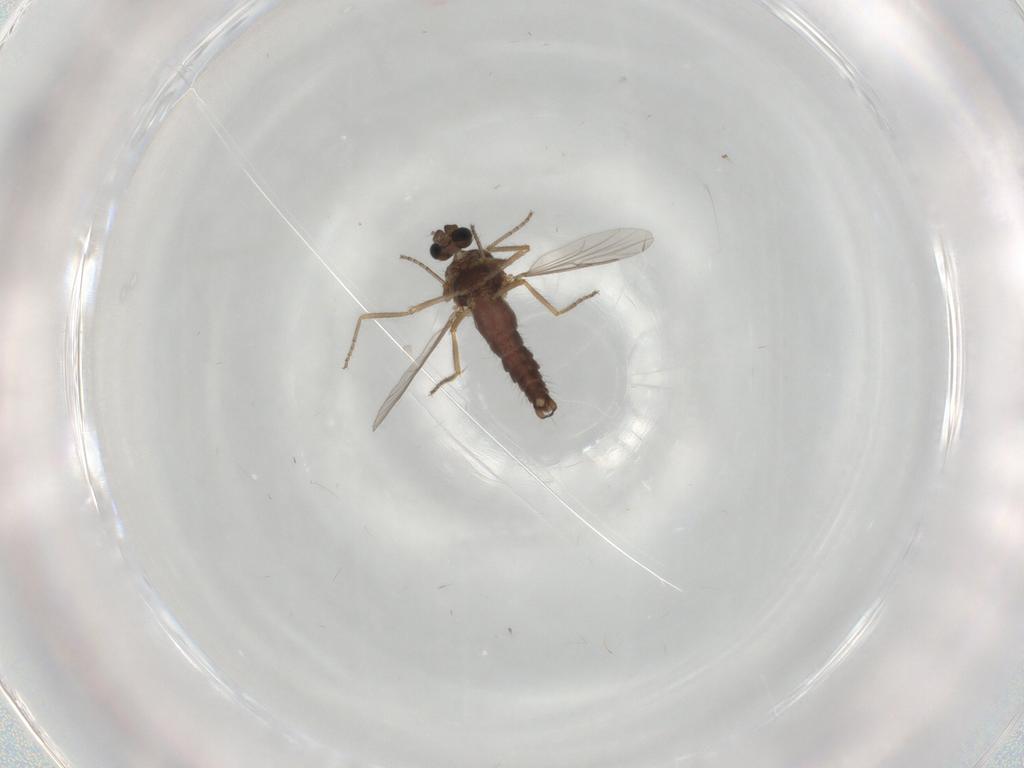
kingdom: Animalia
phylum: Arthropoda
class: Insecta
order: Diptera
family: Ceratopogonidae
